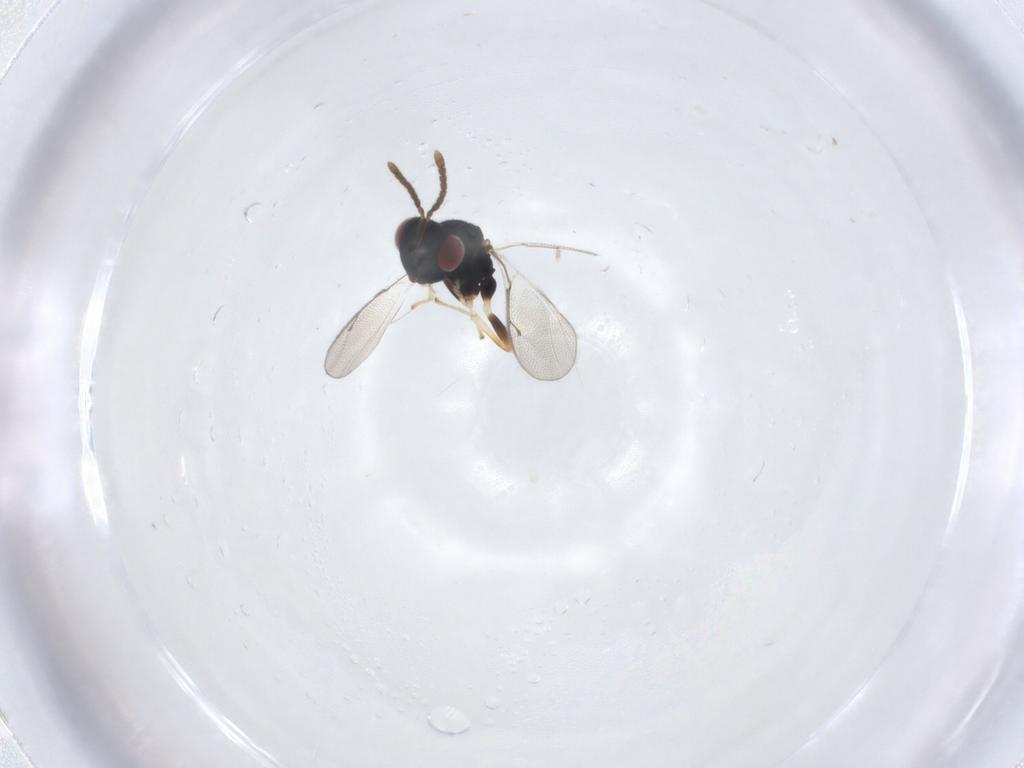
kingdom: Animalia
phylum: Arthropoda
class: Insecta
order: Hymenoptera
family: Pteromalidae
